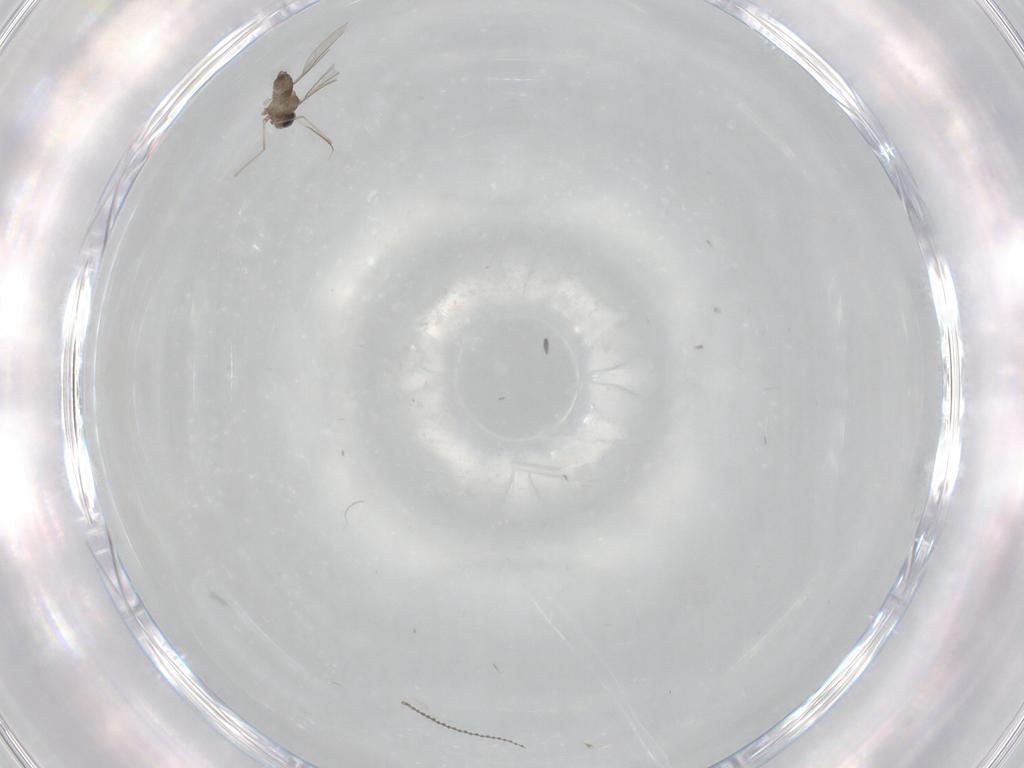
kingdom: Animalia
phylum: Arthropoda
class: Insecta
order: Diptera
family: Cecidomyiidae
